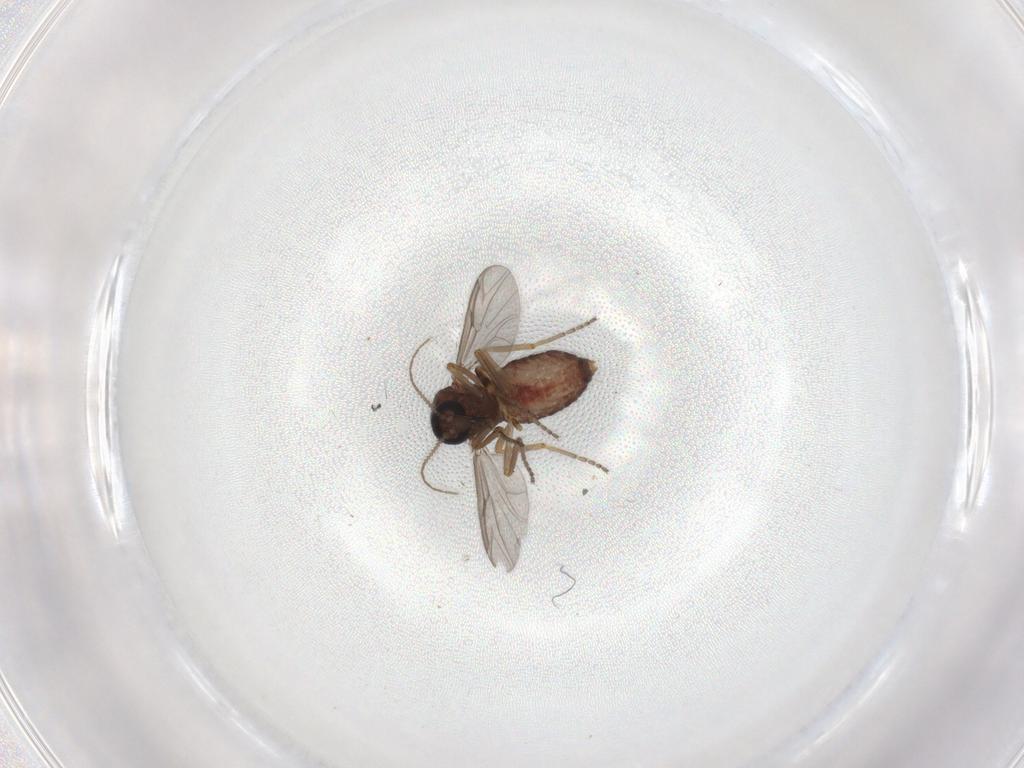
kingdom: Animalia
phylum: Arthropoda
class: Insecta
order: Diptera
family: Ceratopogonidae
